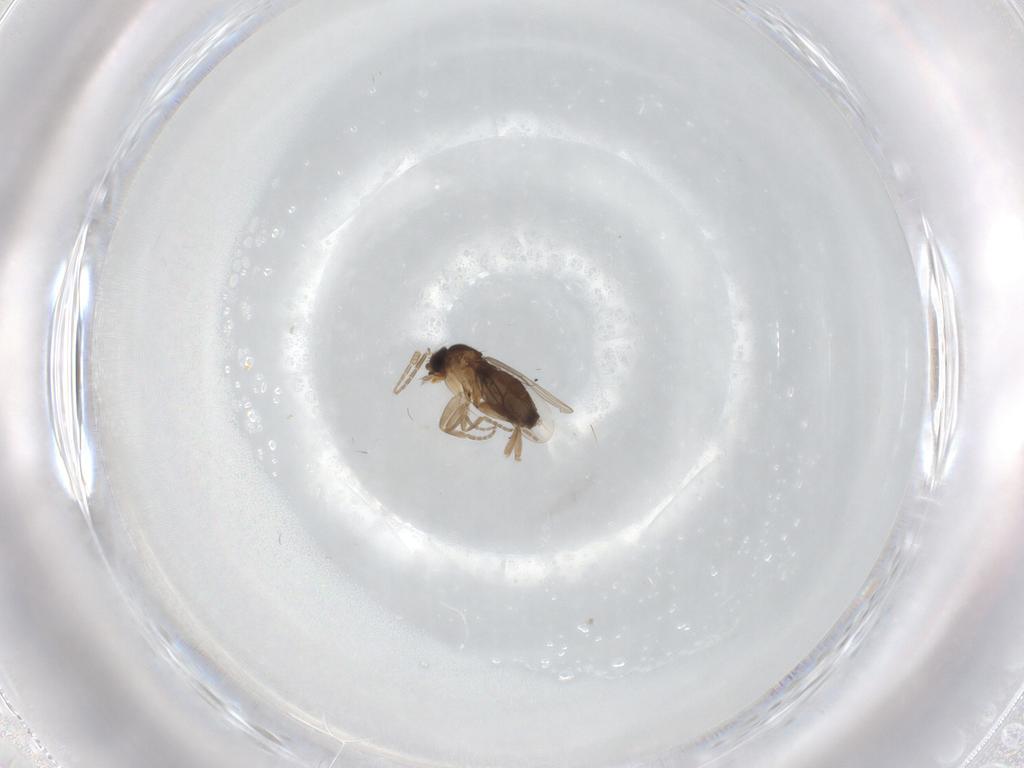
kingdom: Animalia
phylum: Arthropoda
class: Insecta
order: Diptera
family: Phoridae
